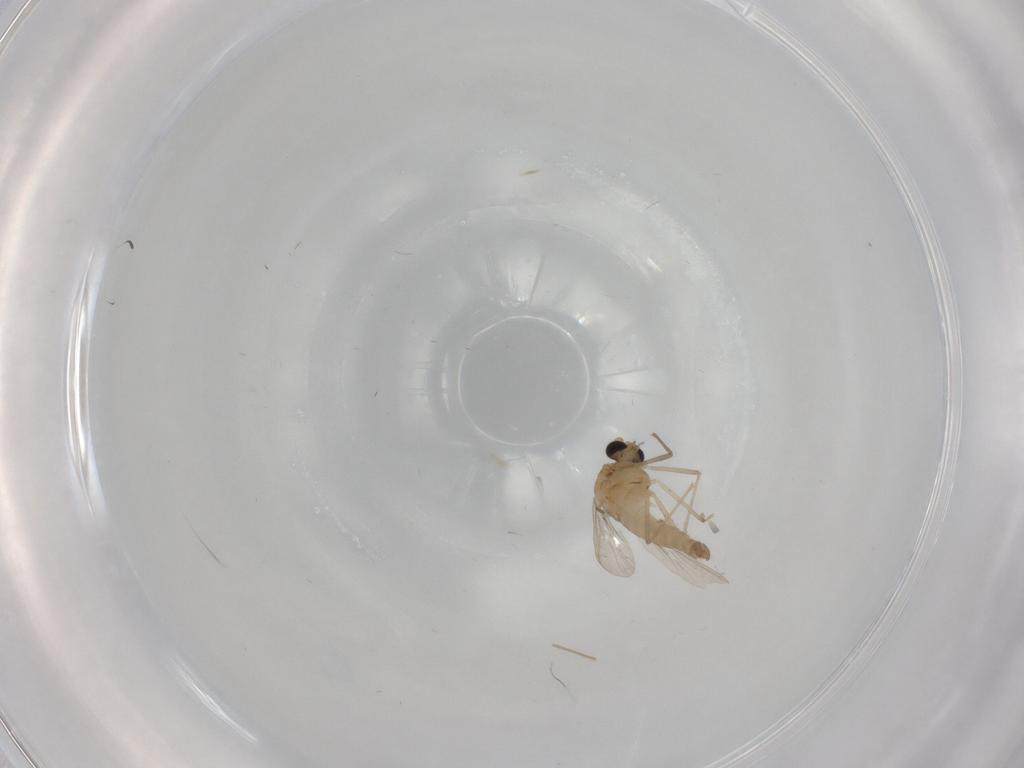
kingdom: Animalia
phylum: Arthropoda
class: Insecta
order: Diptera
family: Chironomidae
